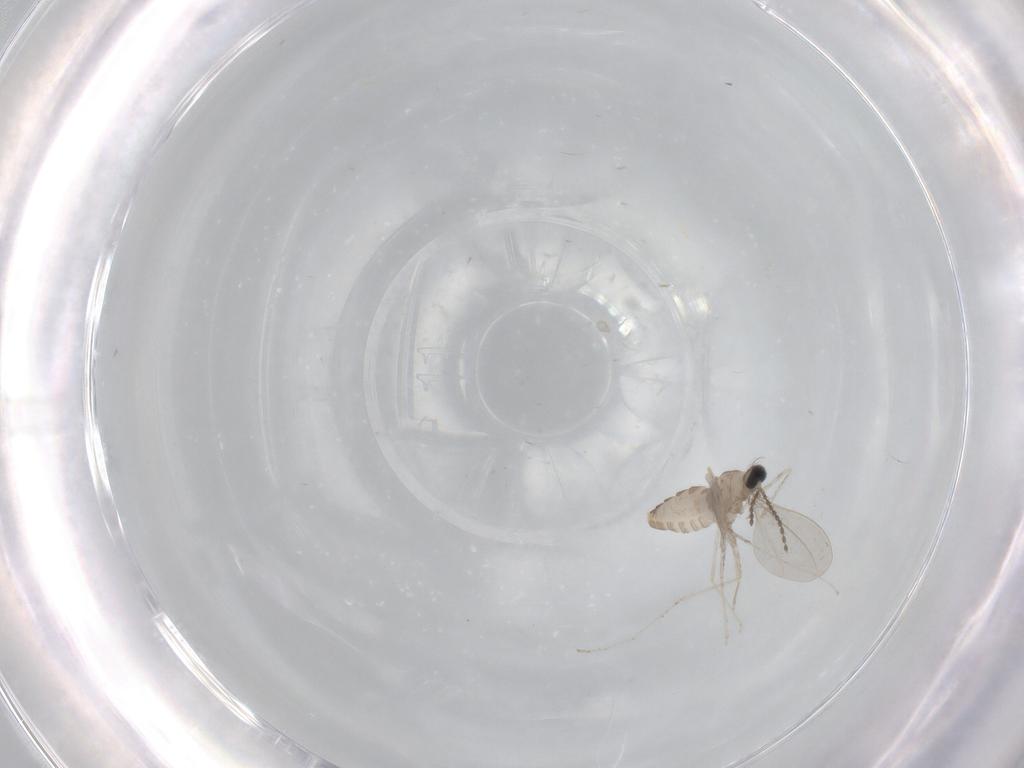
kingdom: Animalia
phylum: Arthropoda
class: Insecta
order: Diptera
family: Cecidomyiidae
